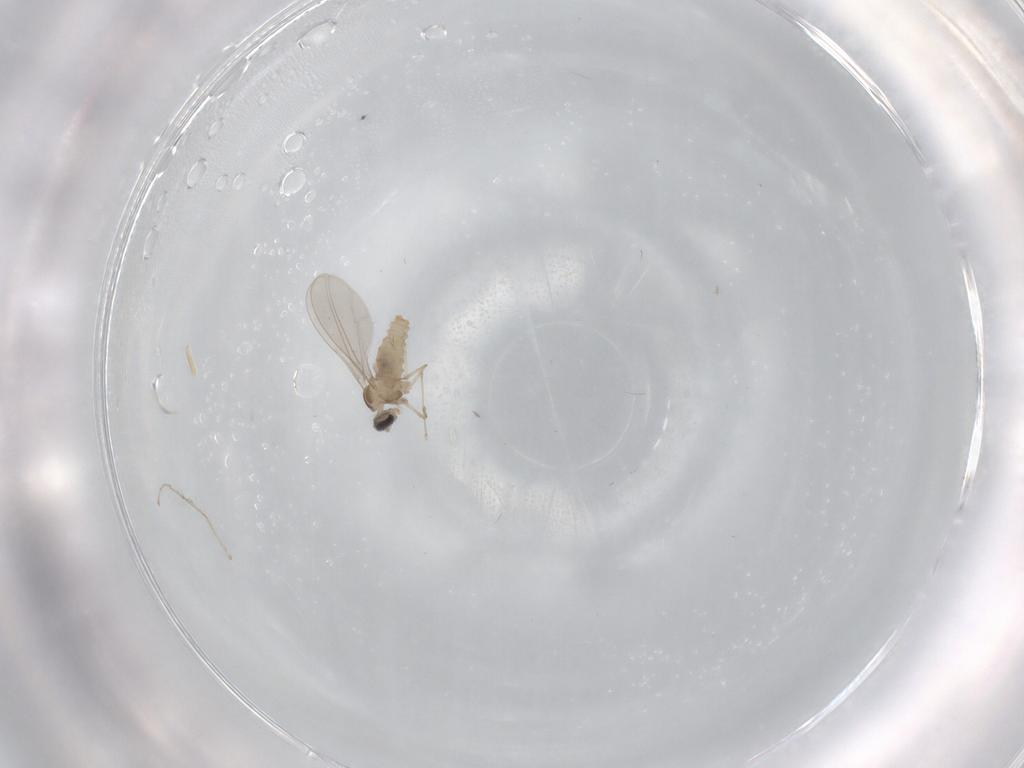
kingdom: Animalia
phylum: Arthropoda
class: Insecta
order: Diptera
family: Cecidomyiidae
